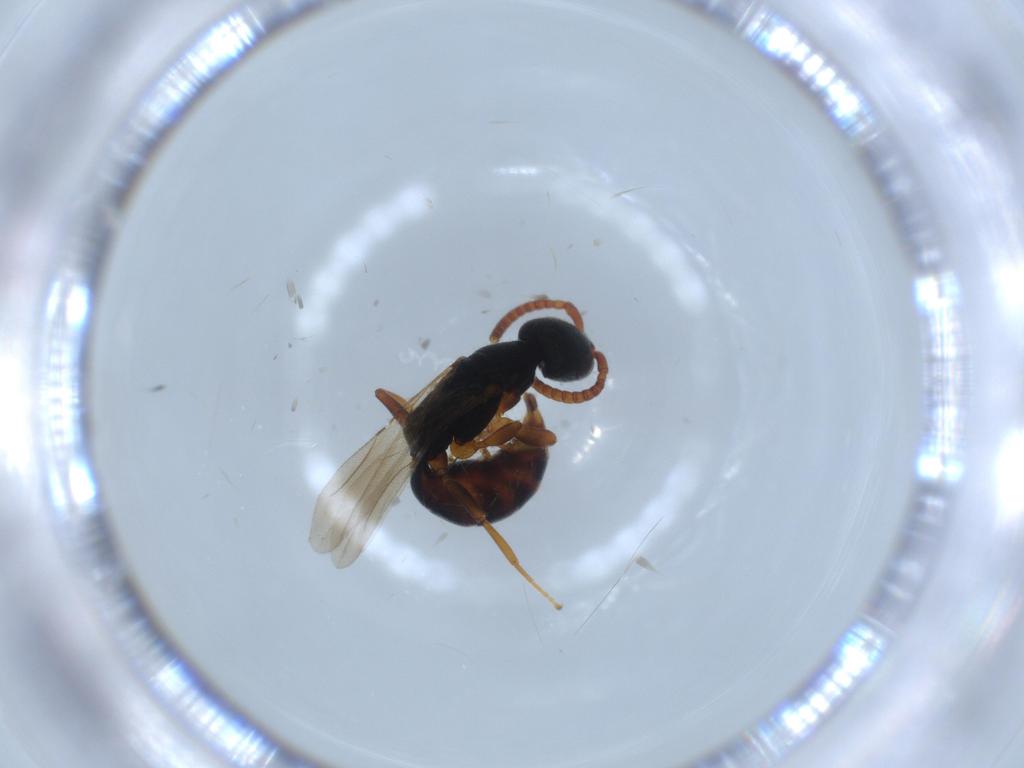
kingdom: Animalia
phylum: Arthropoda
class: Insecta
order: Hymenoptera
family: Bethylidae
